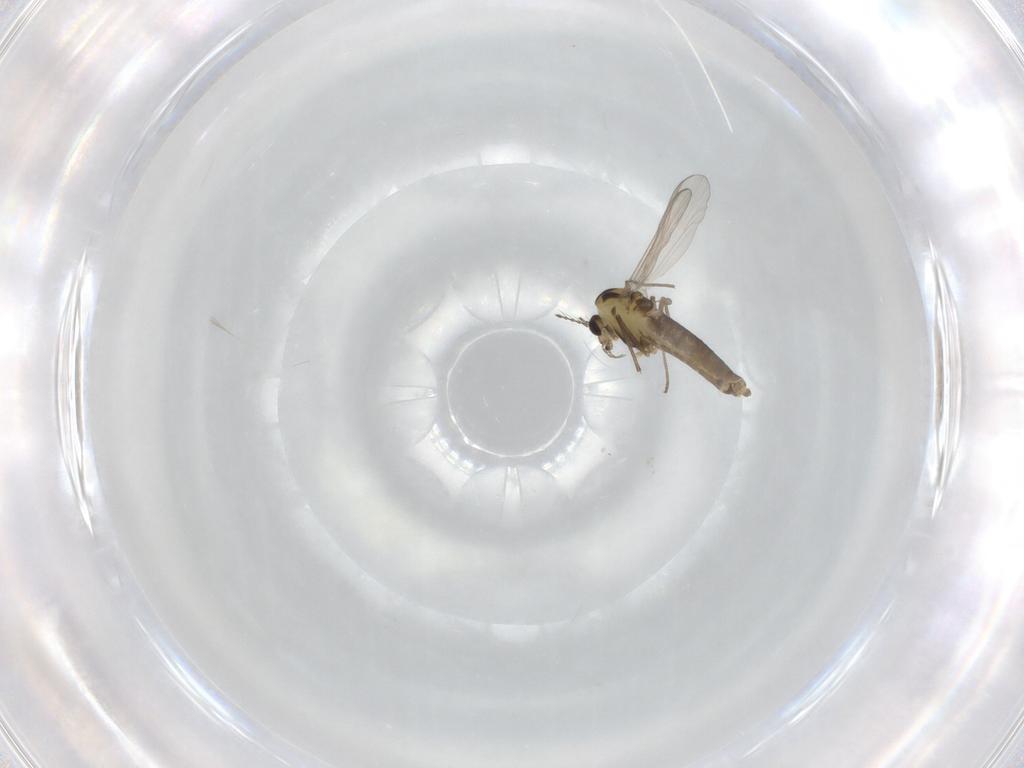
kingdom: Animalia
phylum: Arthropoda
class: Insecta
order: Diptera
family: Chironomidae
